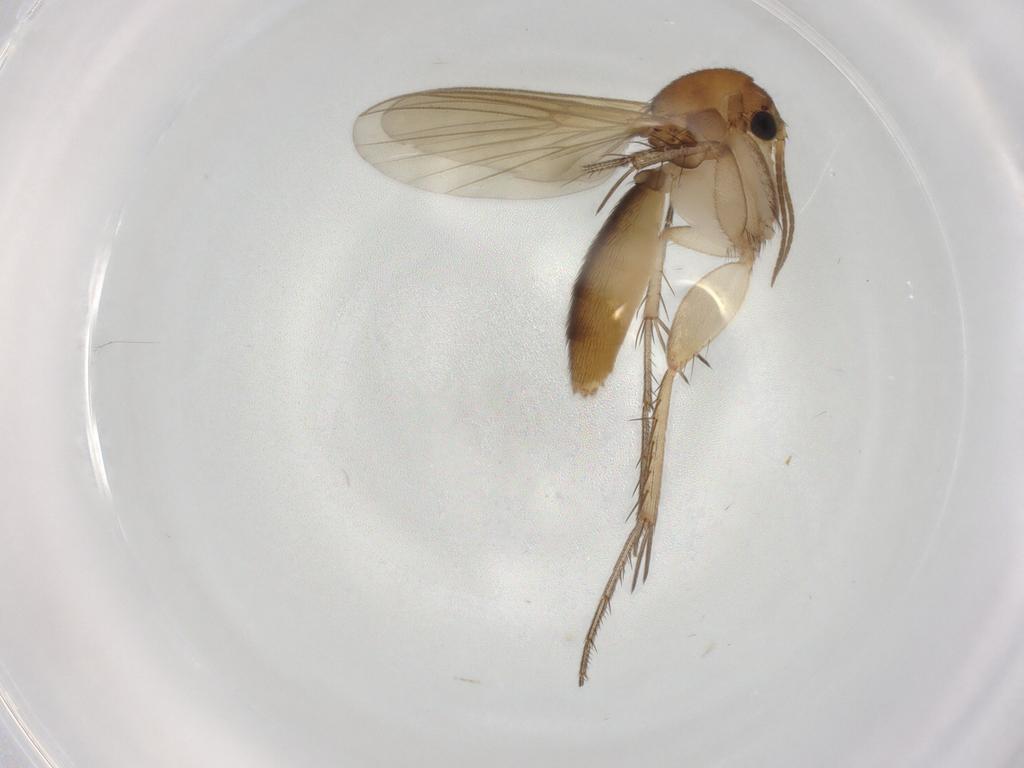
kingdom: Animalia
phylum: Arthropoda
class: Insecta
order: Diptera
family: Mycetophilidae
